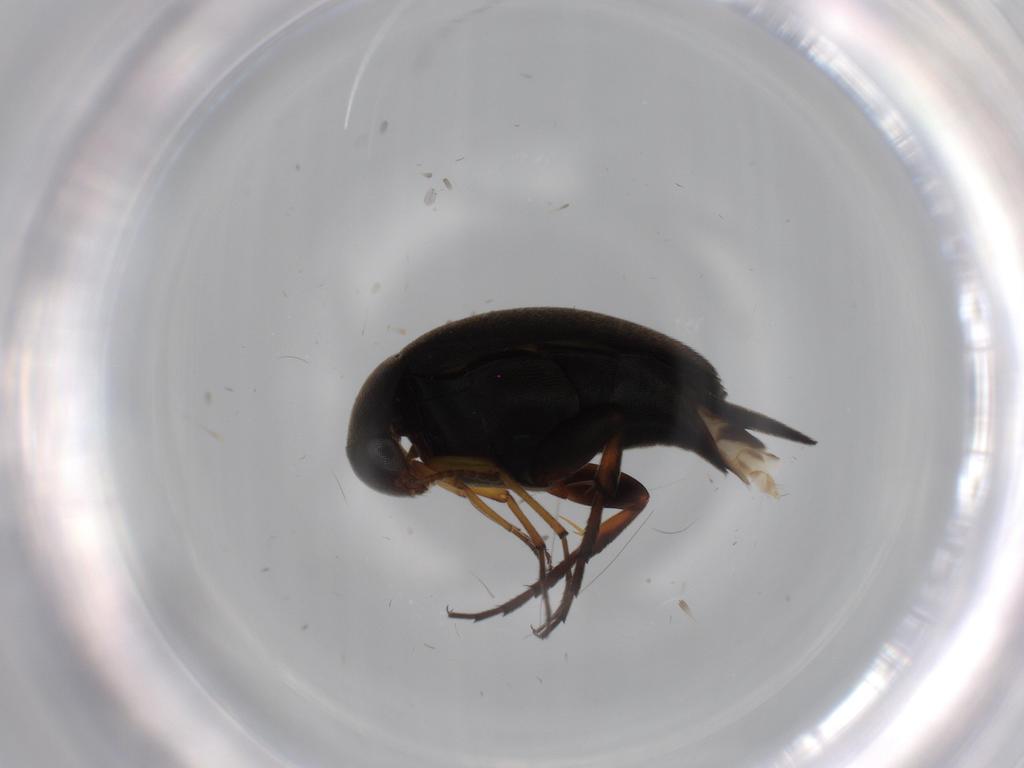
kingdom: Animalia
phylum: Arthropoda
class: Insecta
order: Coleoptera
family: Mordellidae
